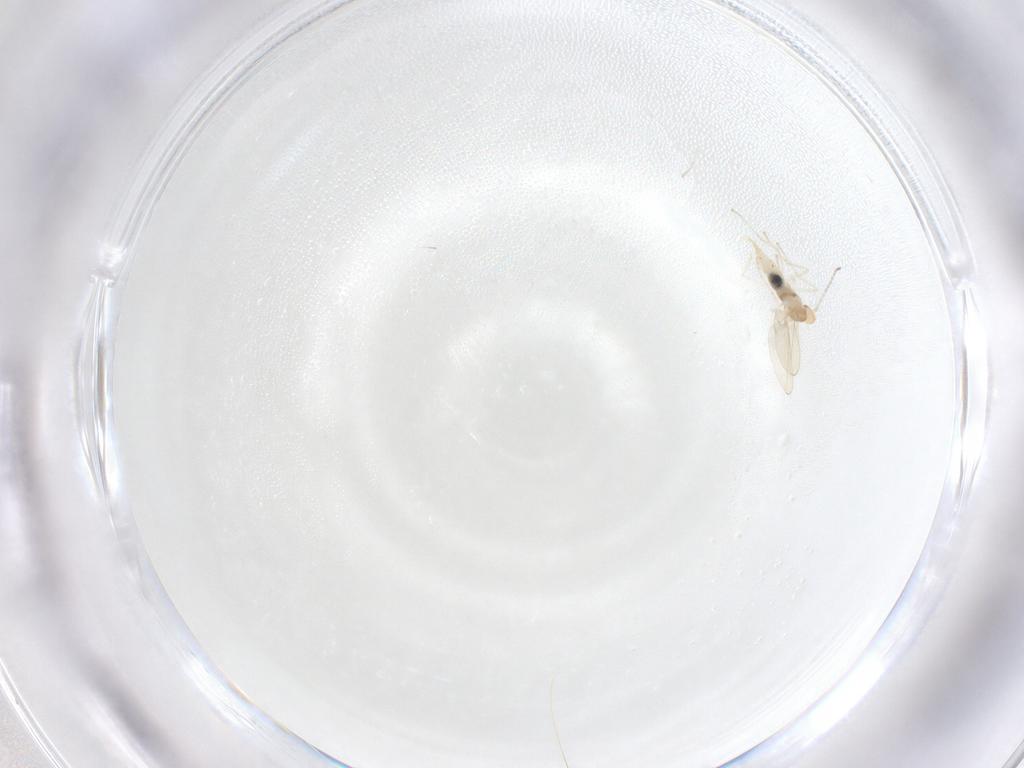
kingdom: Animalia
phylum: Arthropoda
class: Insecta
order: Diptera
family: Cecidomyiidae
